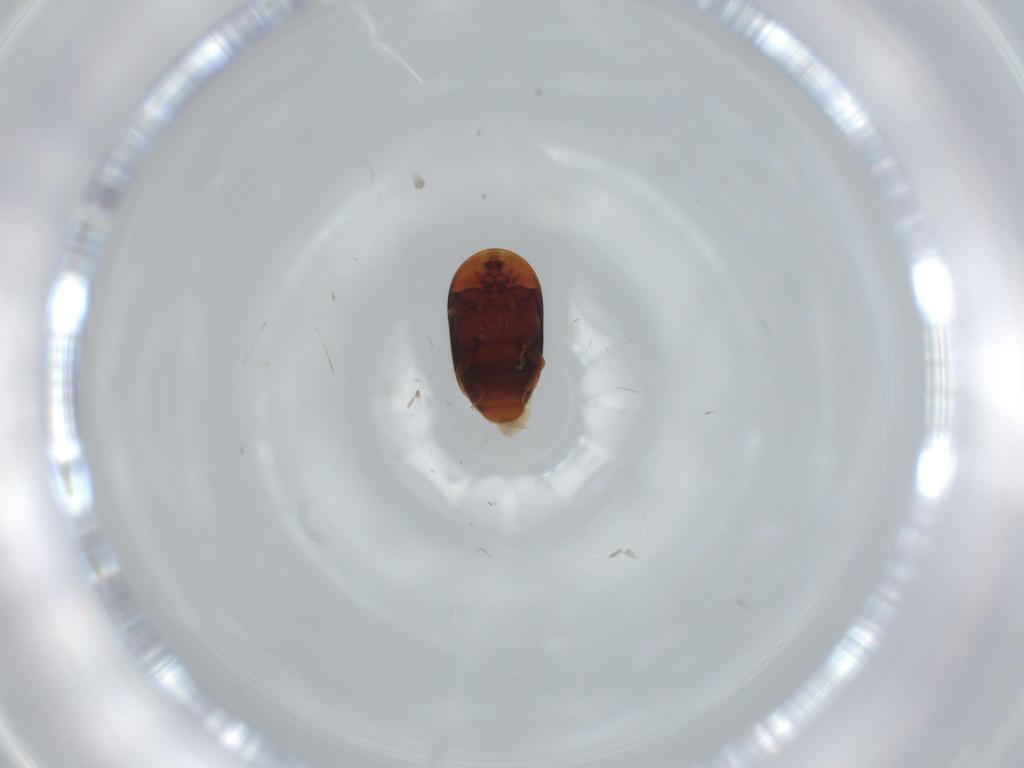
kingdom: Animalia
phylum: Arthropoda
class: Insecta
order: Coleoptera
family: Corylophidae
